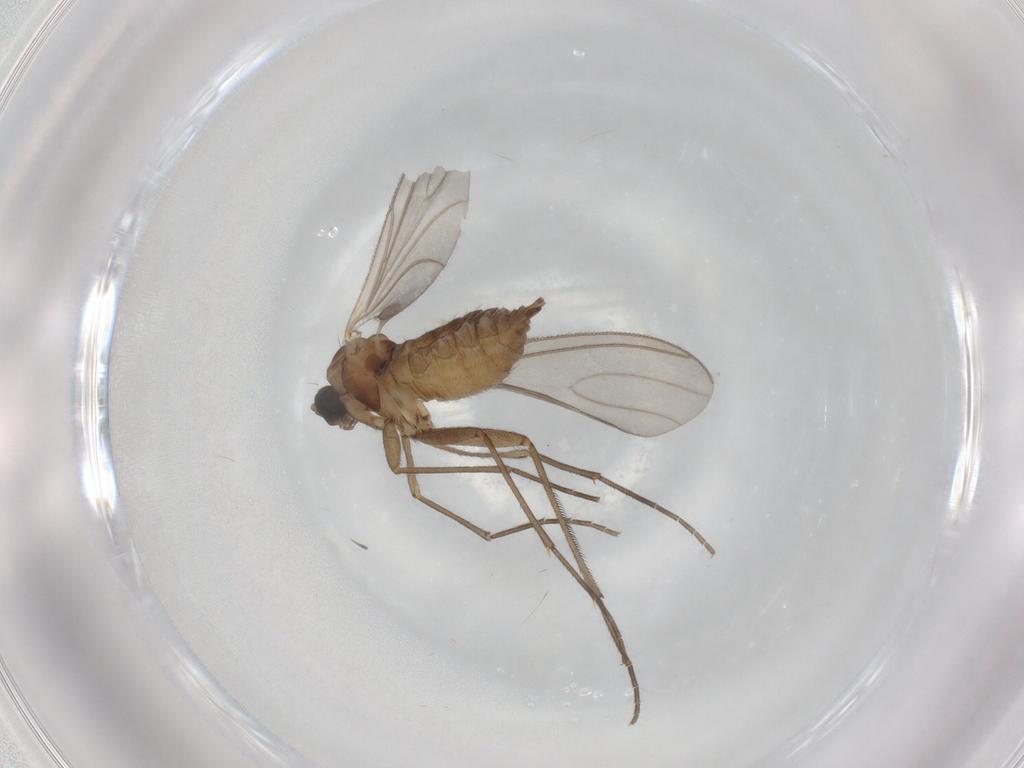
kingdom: Animalia
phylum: Arthropoda
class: Insecta
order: Diptera
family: Sciaridae
